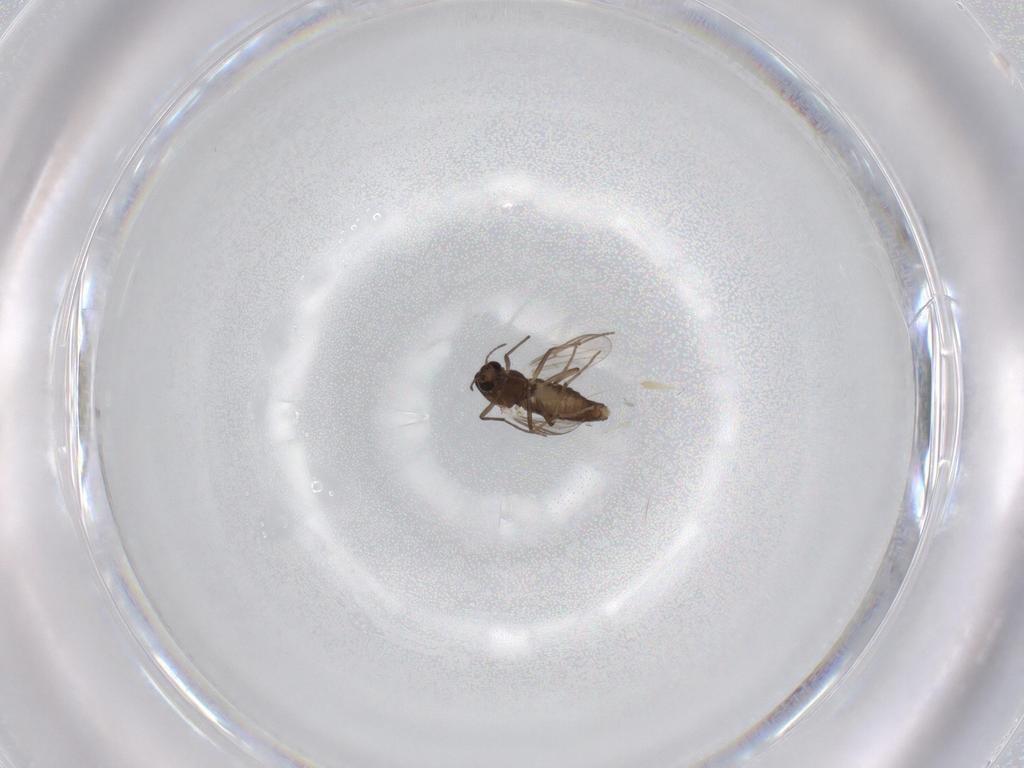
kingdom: Animalia
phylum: Arthropoda
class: Insecta
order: Diptera
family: Chironomidae
